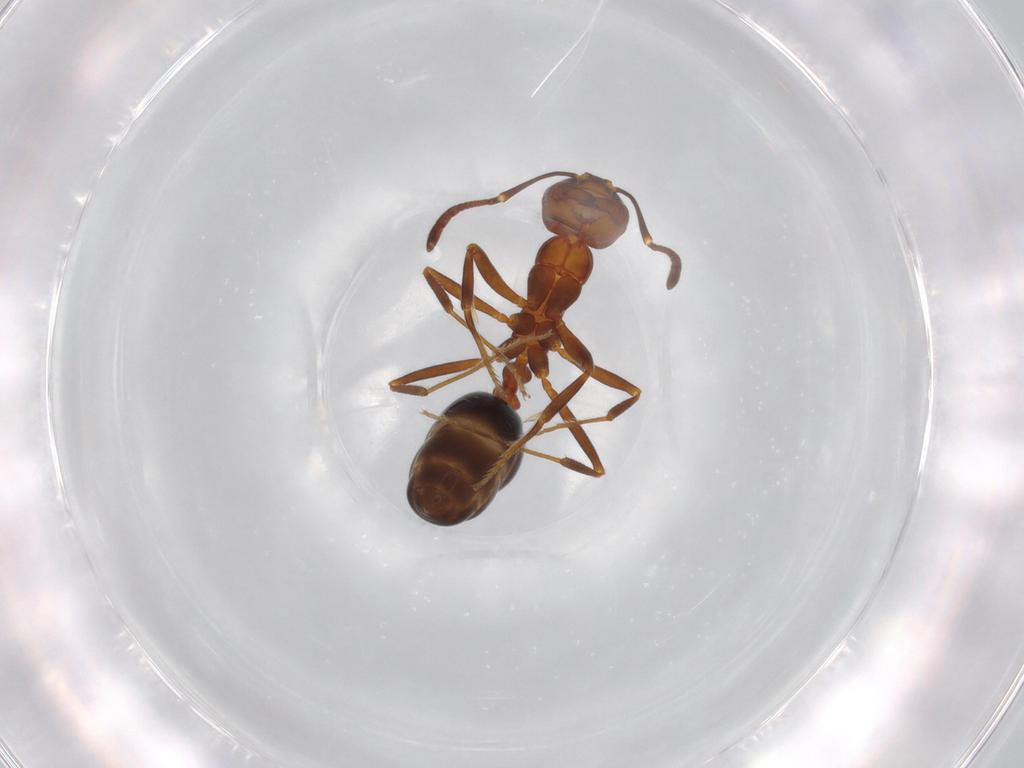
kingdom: Animalia
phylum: Arthropoda
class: Insecta
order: Hymenoptera
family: Formicidae
